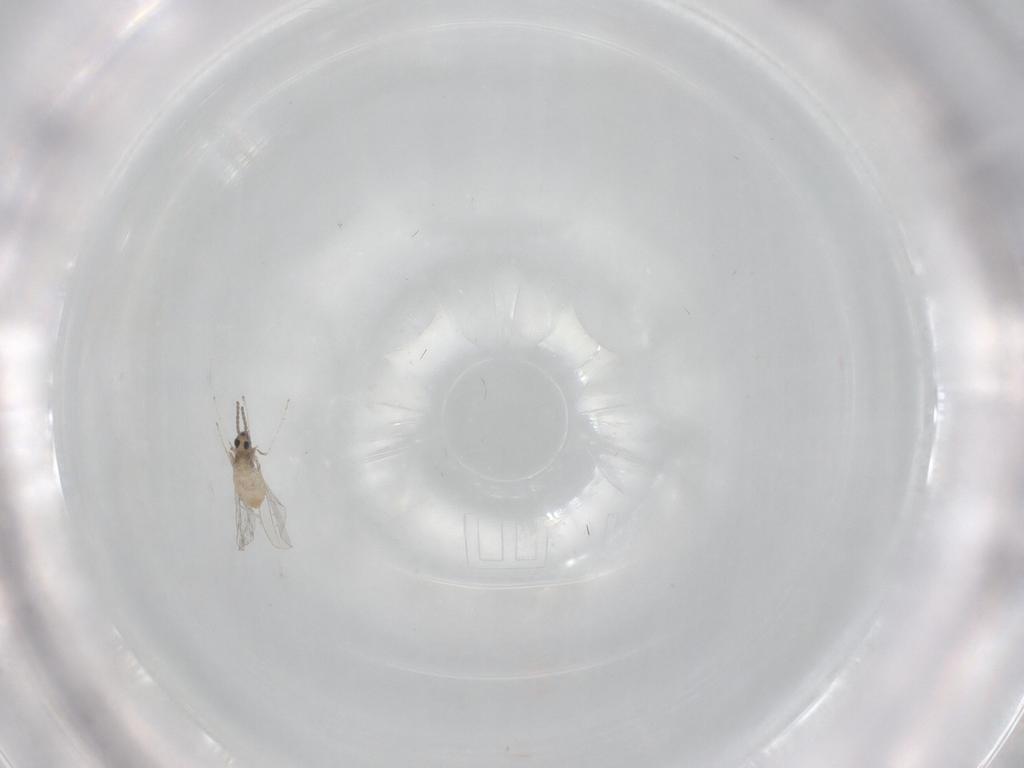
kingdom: Animalia
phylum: Arthropoda
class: Insecta
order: Diptera
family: Cecidomyiidae
